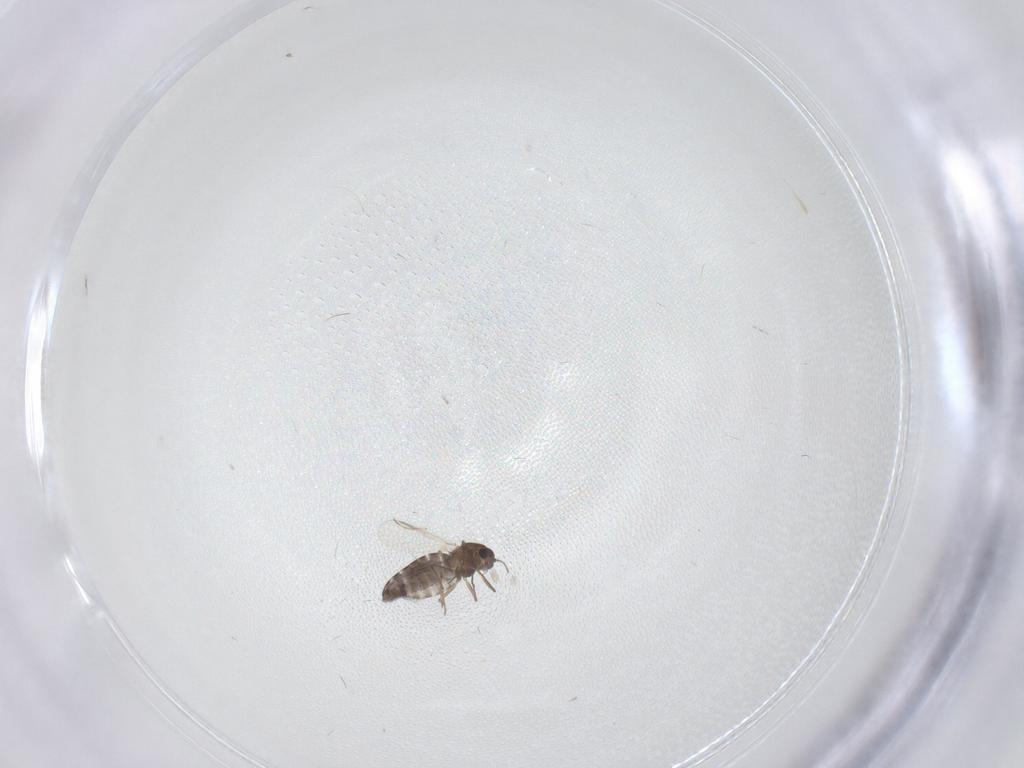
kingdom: Animalia
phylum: Arthropoda
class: Insecta
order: Diptera
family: Chironomidae
